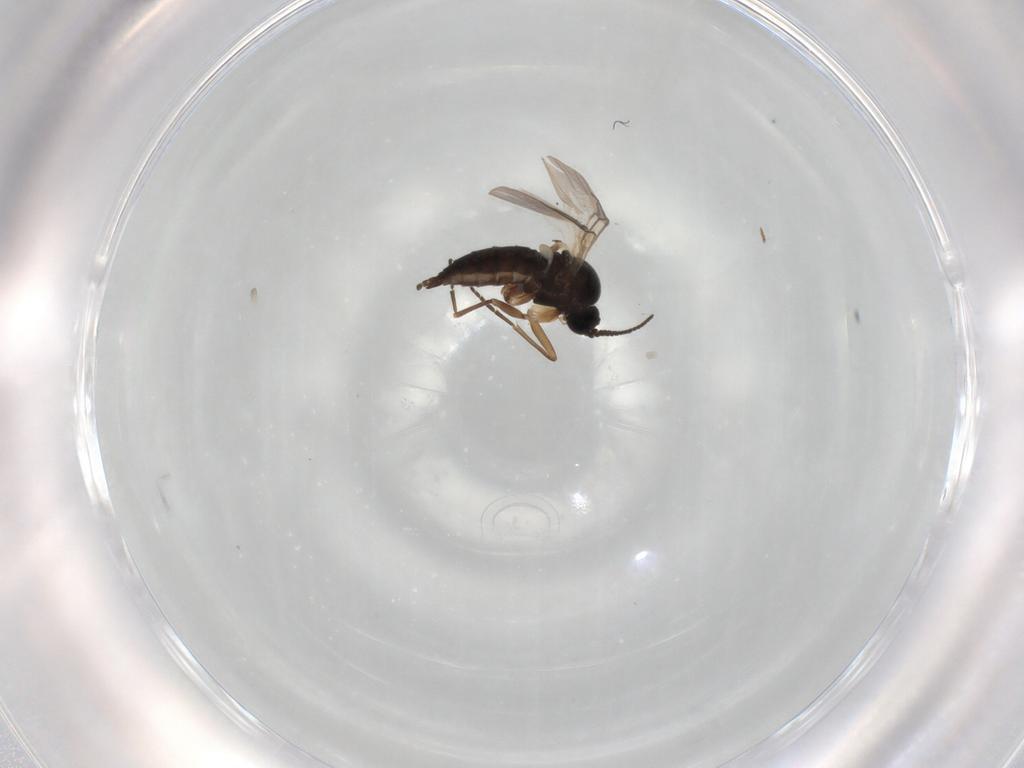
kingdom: Animalia
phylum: Arthropoda
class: Insecta
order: Diptera
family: Sciaridae
